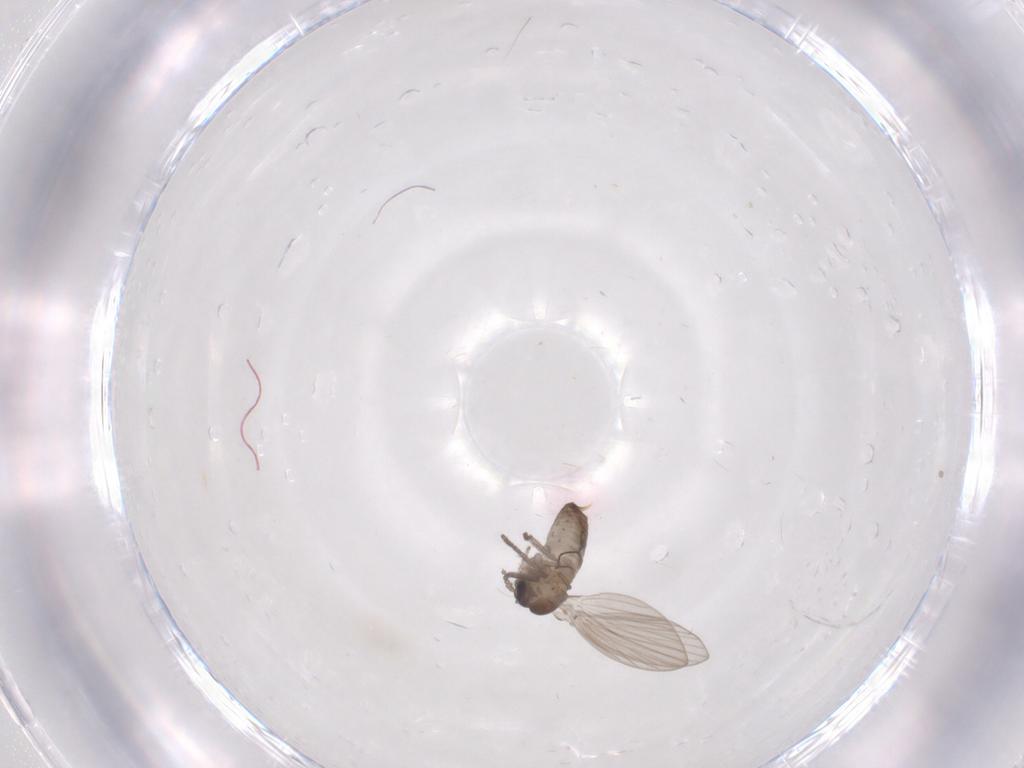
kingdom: Animalia
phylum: Arthropoda
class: Insecta
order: Diptera
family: Psychodidae
